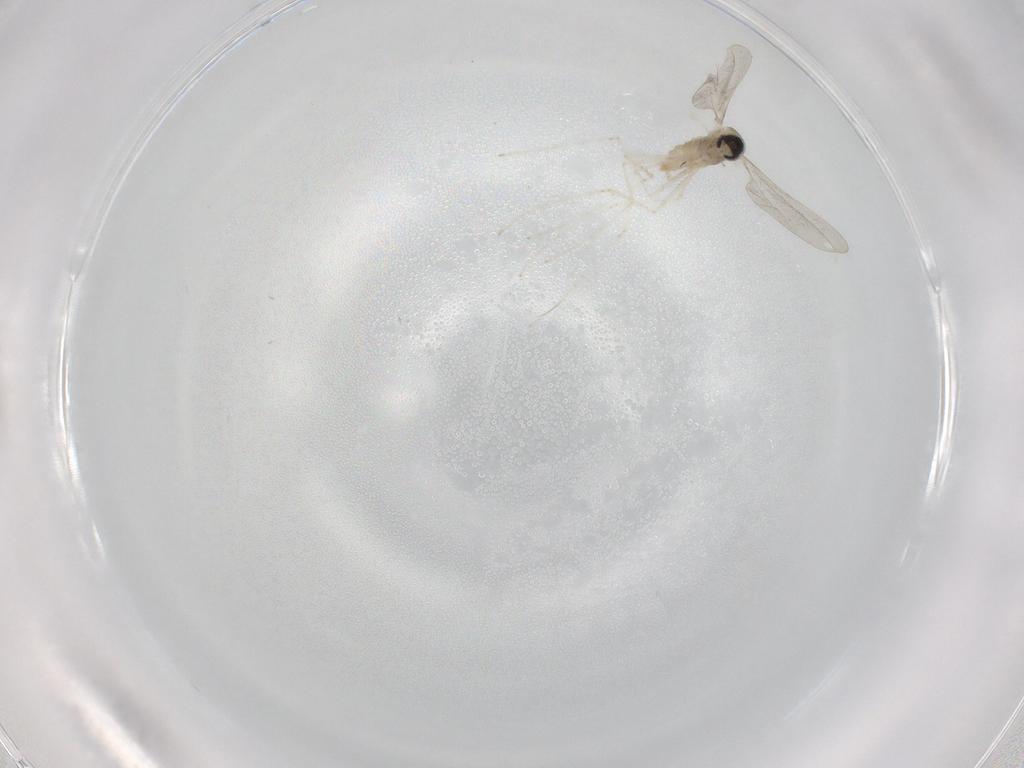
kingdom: Animalia
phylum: Arthropoda
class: Insecta
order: Diptera
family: Cecidomyiidae
